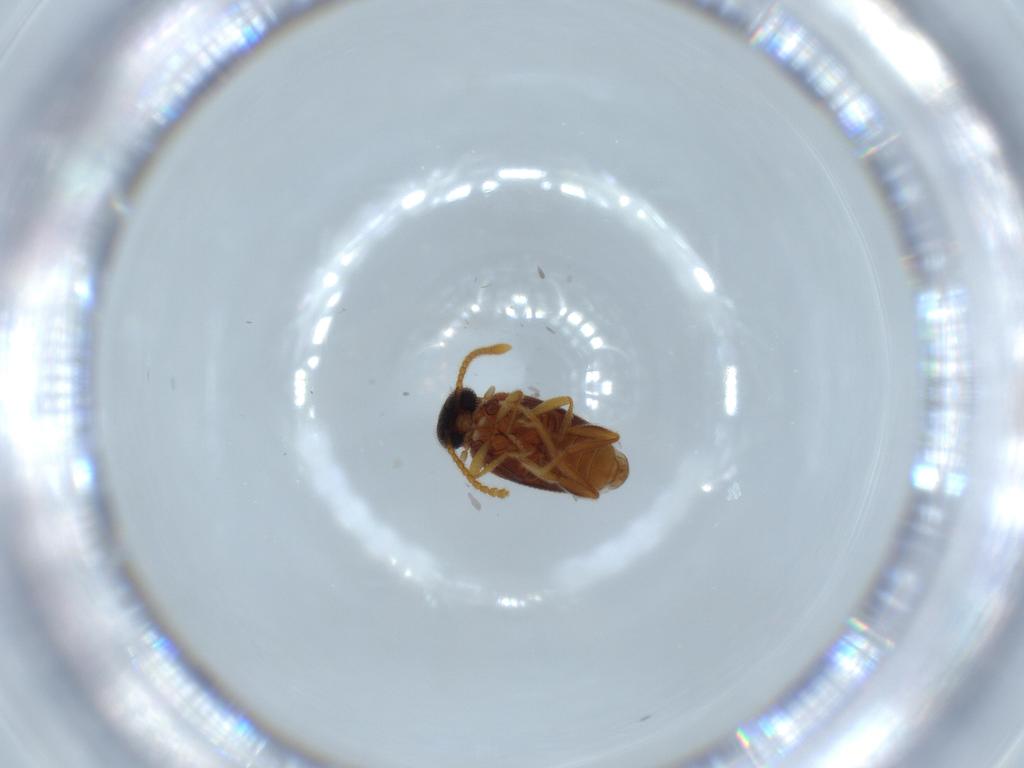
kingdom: Animalia
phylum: Arthropoda
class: Insecta
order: Coleoptera
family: Aderidae
